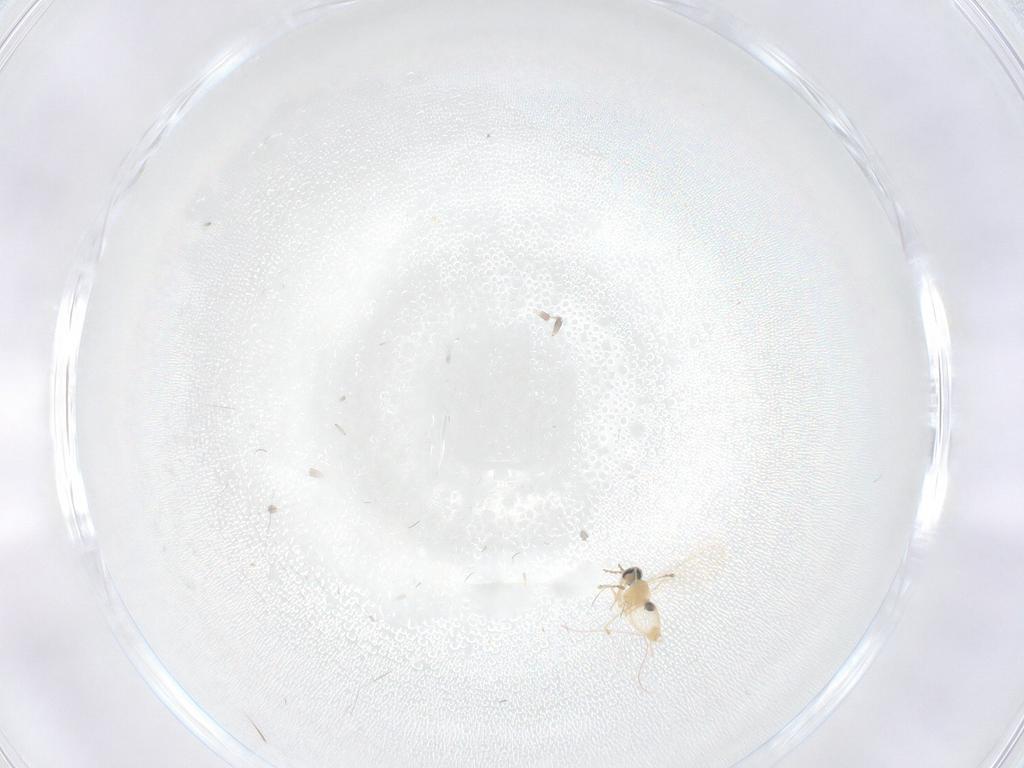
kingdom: Animalia
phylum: Arthropoda
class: Insecta
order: Diptera
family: Cecidomyiidae
